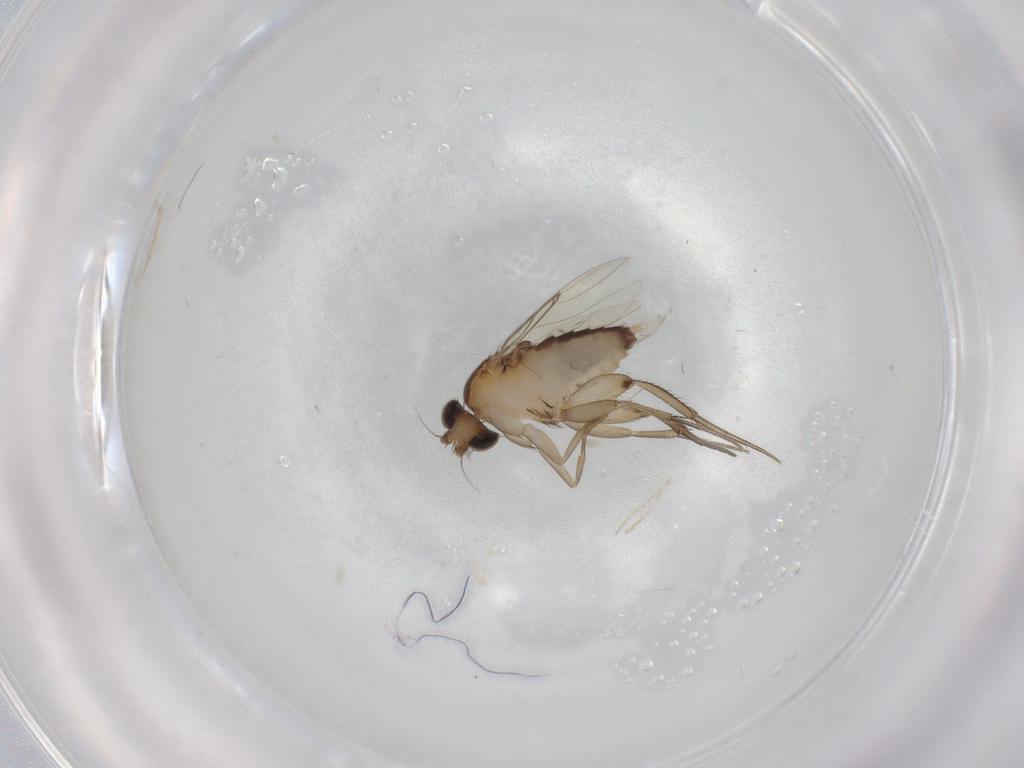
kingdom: Animalia
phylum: Arthropoda
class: Insecta
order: Diptera
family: Phoridae
